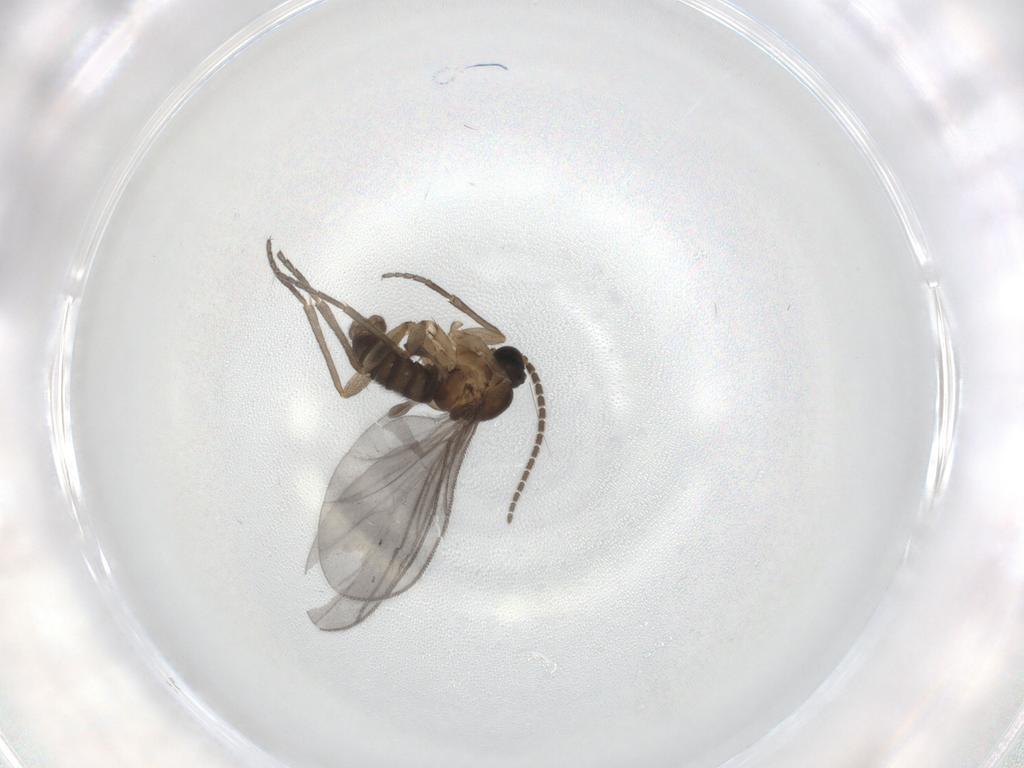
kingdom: Animalia
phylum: Arthropoda
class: Insecta
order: Diptera
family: Sciaridae
